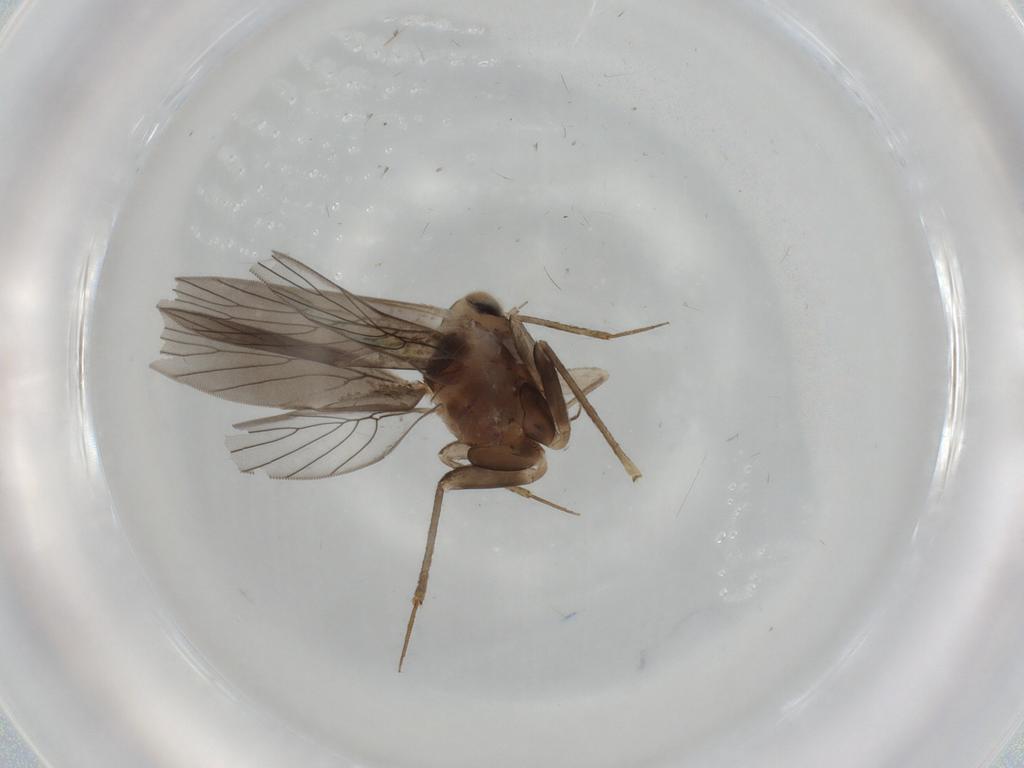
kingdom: Animalia
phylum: Arthropoda
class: Insecta
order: Psocodea
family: Lepidopsocidae
